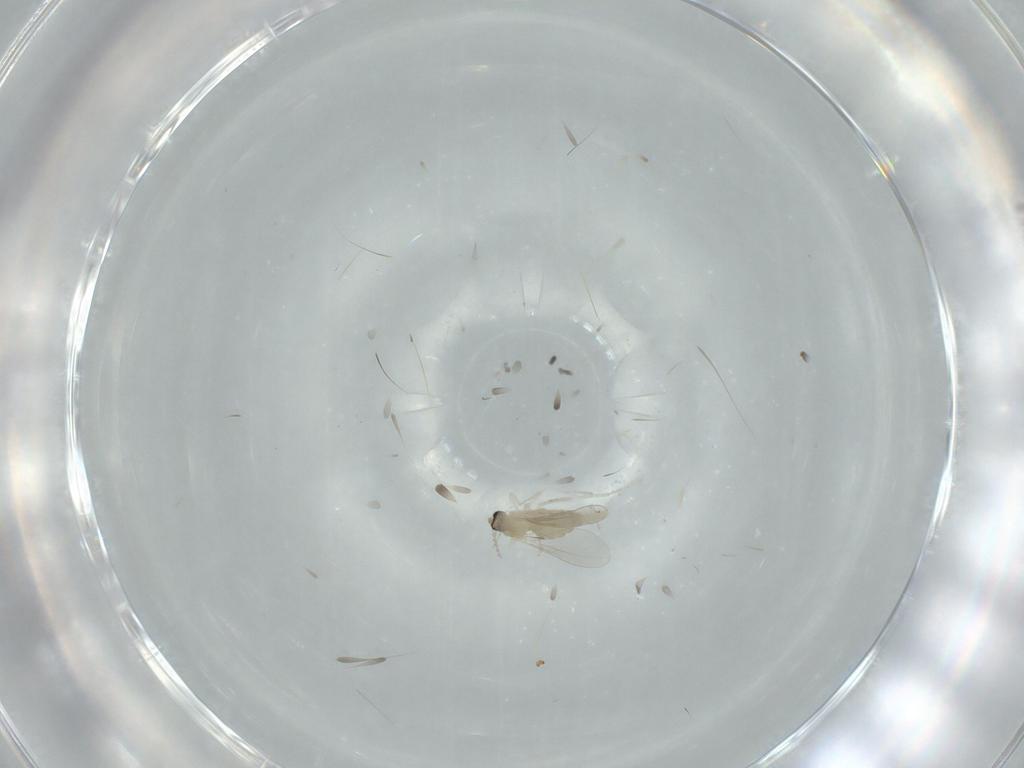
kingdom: Animalia
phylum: Arthropoda
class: Insecta
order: Diptera
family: Cecidomyiidae
